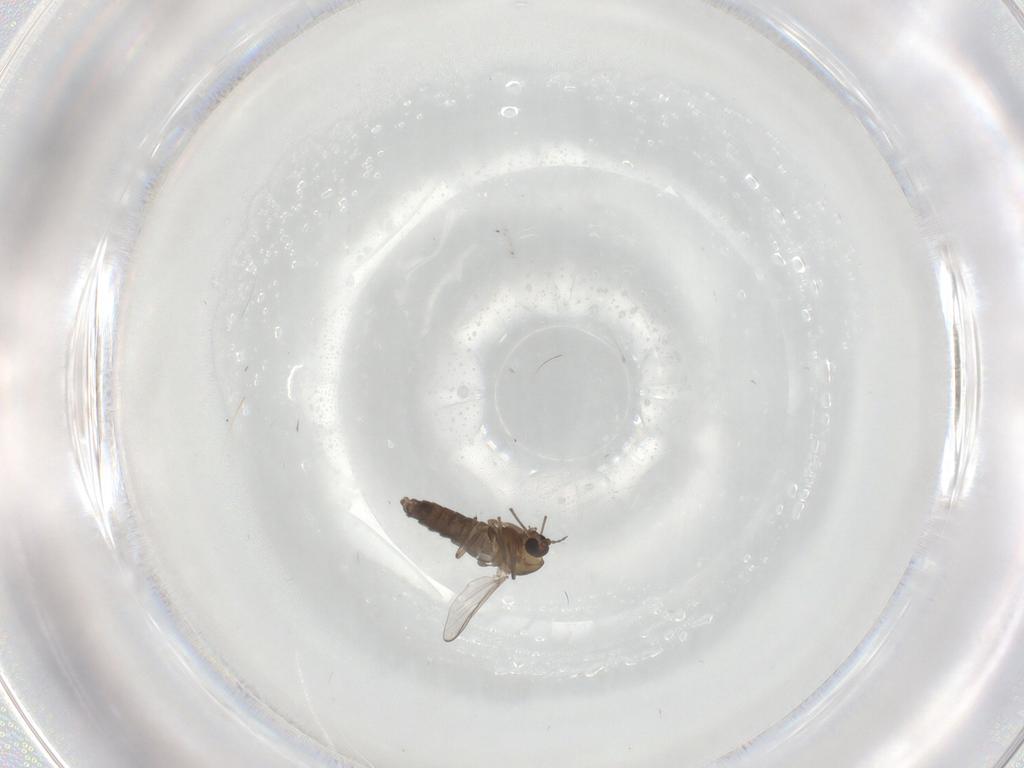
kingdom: Animalia
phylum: Arthropoda
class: Insecta
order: Diptera
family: Chironomidae
